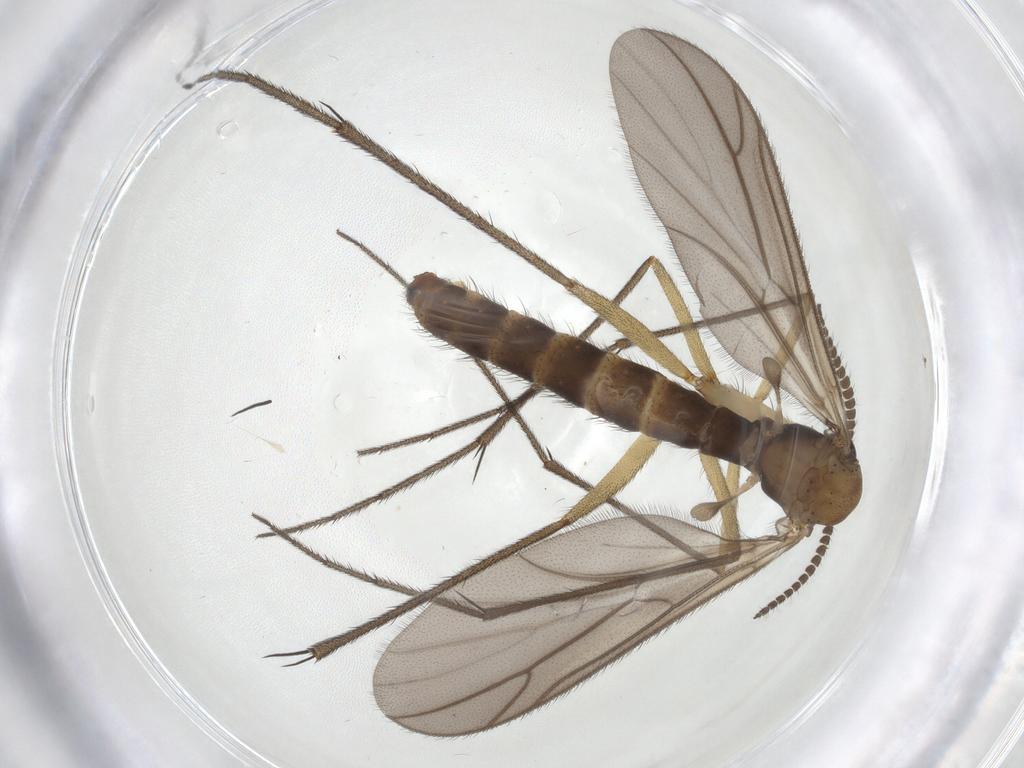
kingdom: Animalia
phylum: Arthropoda
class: Insecta
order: Diptera
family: Ditomyiidae
